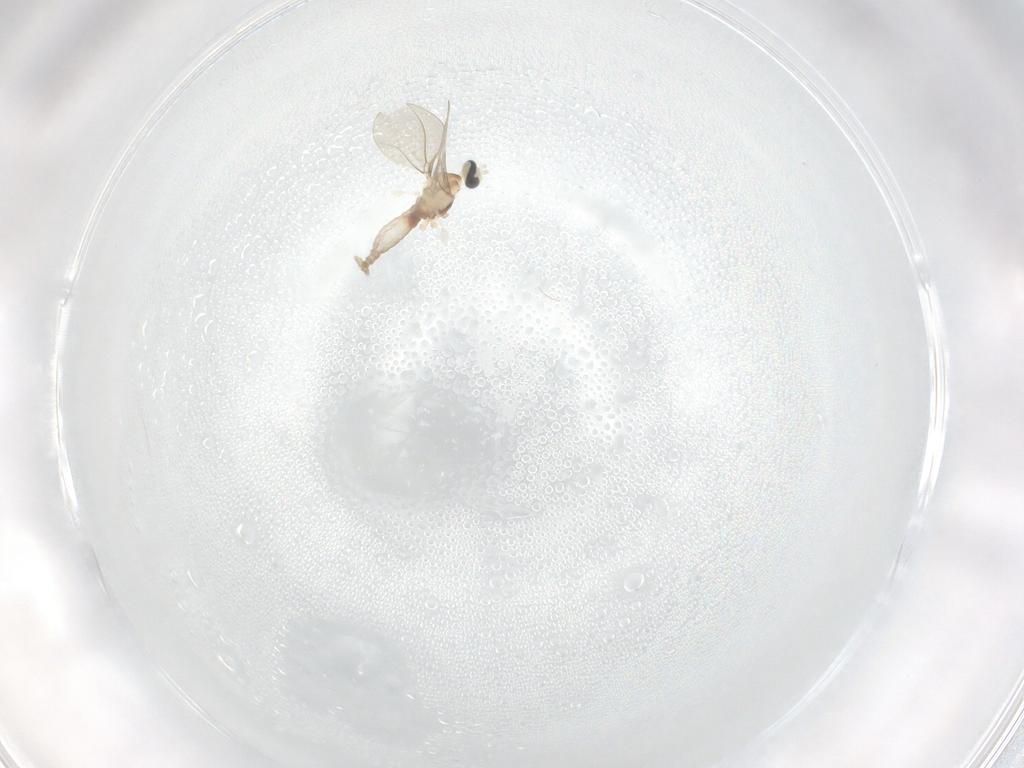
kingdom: Animalia
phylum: Arthropoda
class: Insecta
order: Diptera
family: Mycetophilidae
